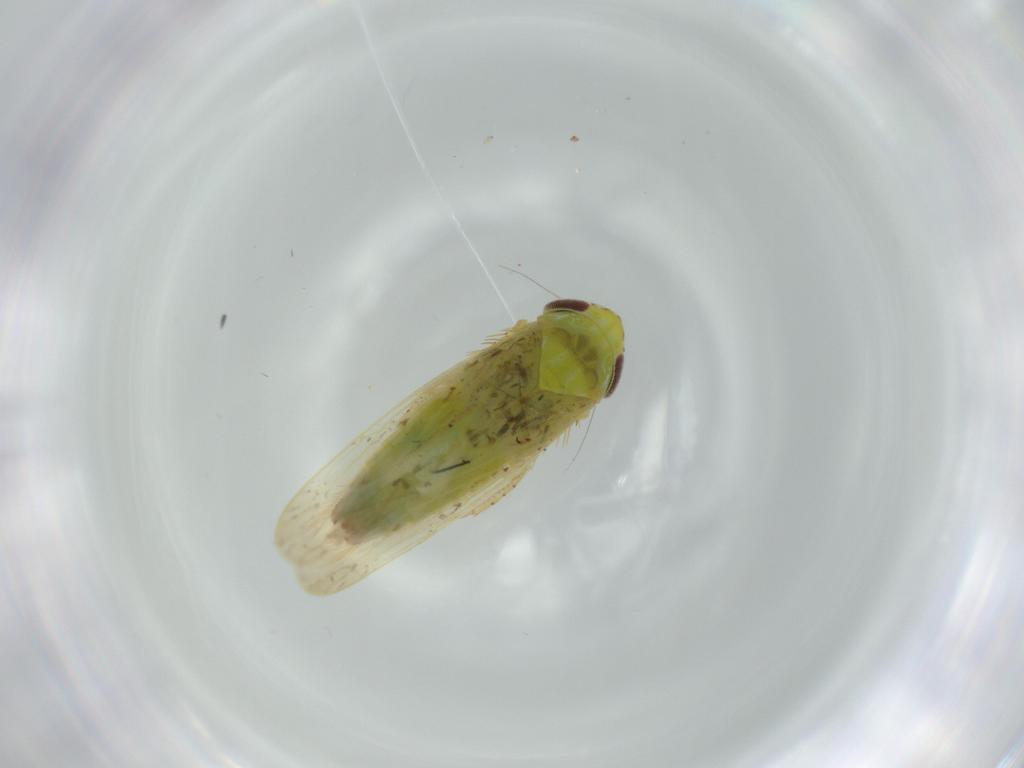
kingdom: Animalia
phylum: Arthropoda
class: Insecta
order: Hemiptera
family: Cicadellidae
